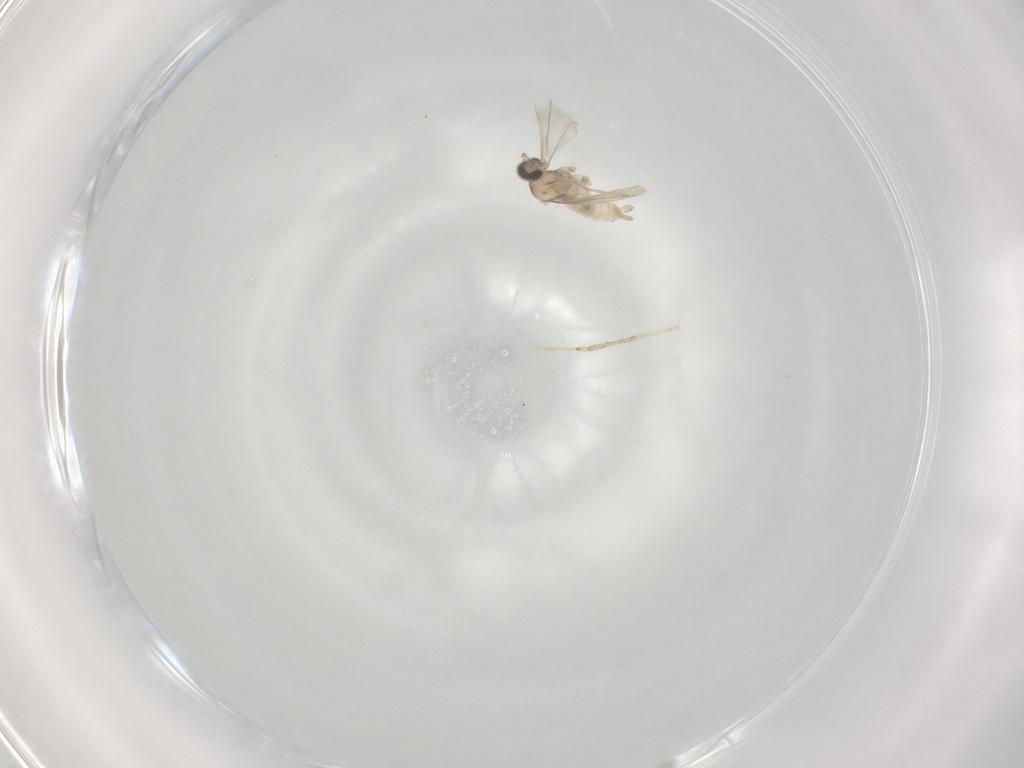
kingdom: Animalia
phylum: Arthropoda
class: Insecta
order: Diptera
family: Cecidomyiidae
